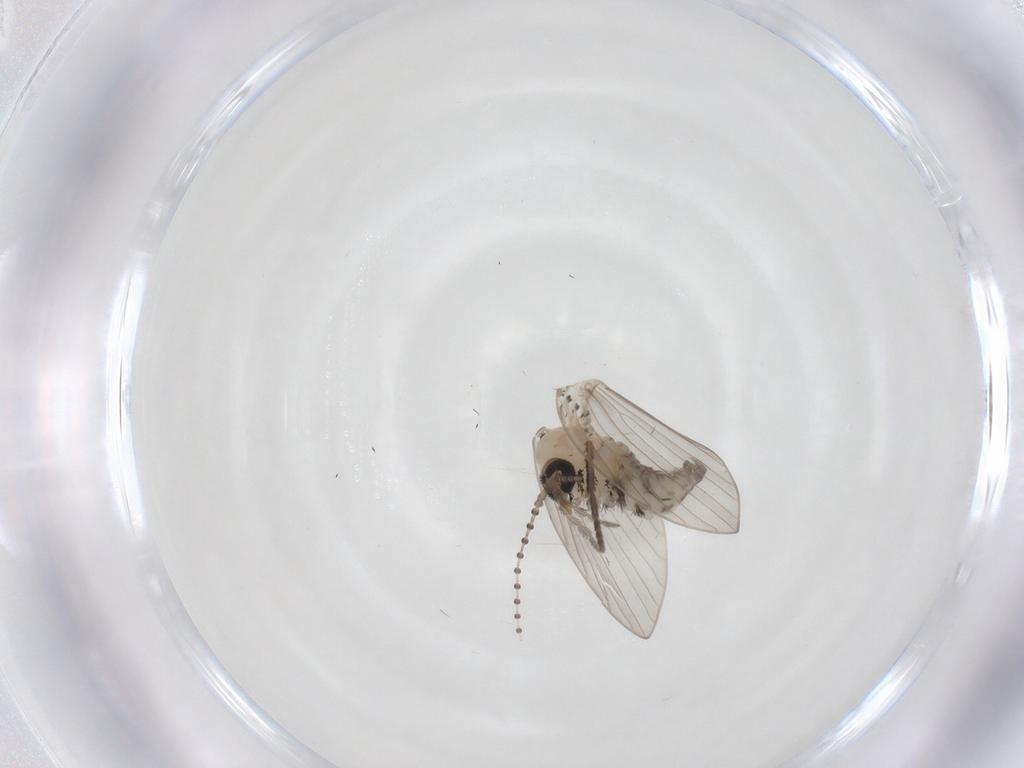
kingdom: Animalia
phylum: Arthropoda
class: Insecta
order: Diptera
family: Psychodidae
